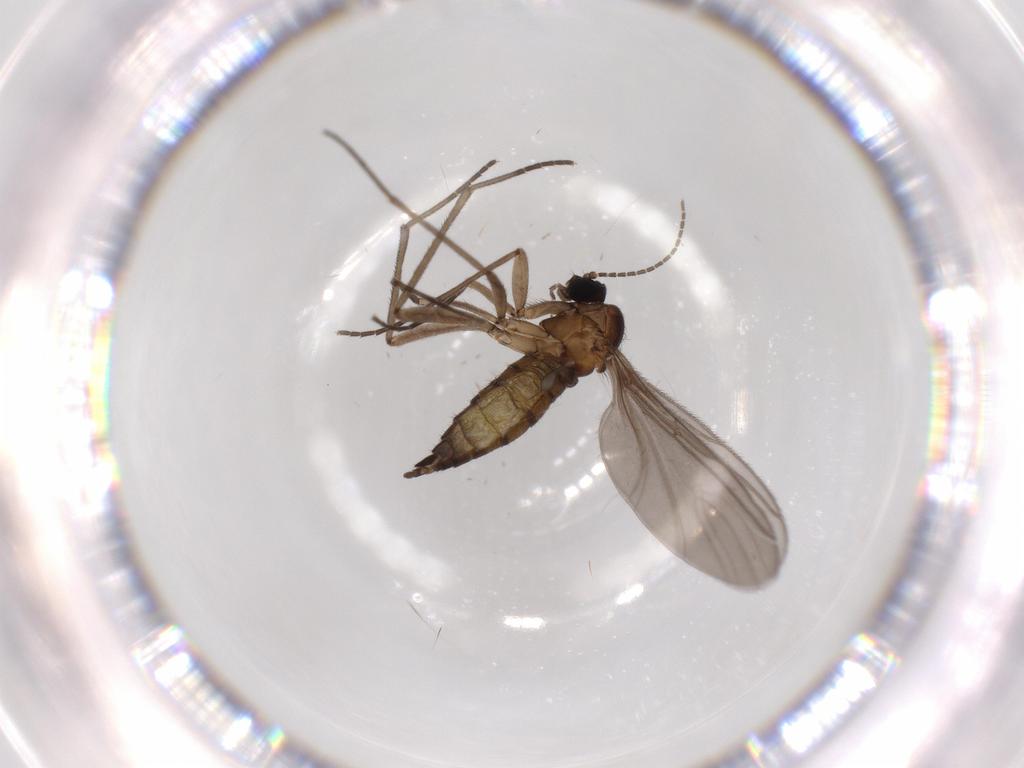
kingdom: Animalia
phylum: Arthropoda
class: Insecta
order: Diptera
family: Sciaridae
